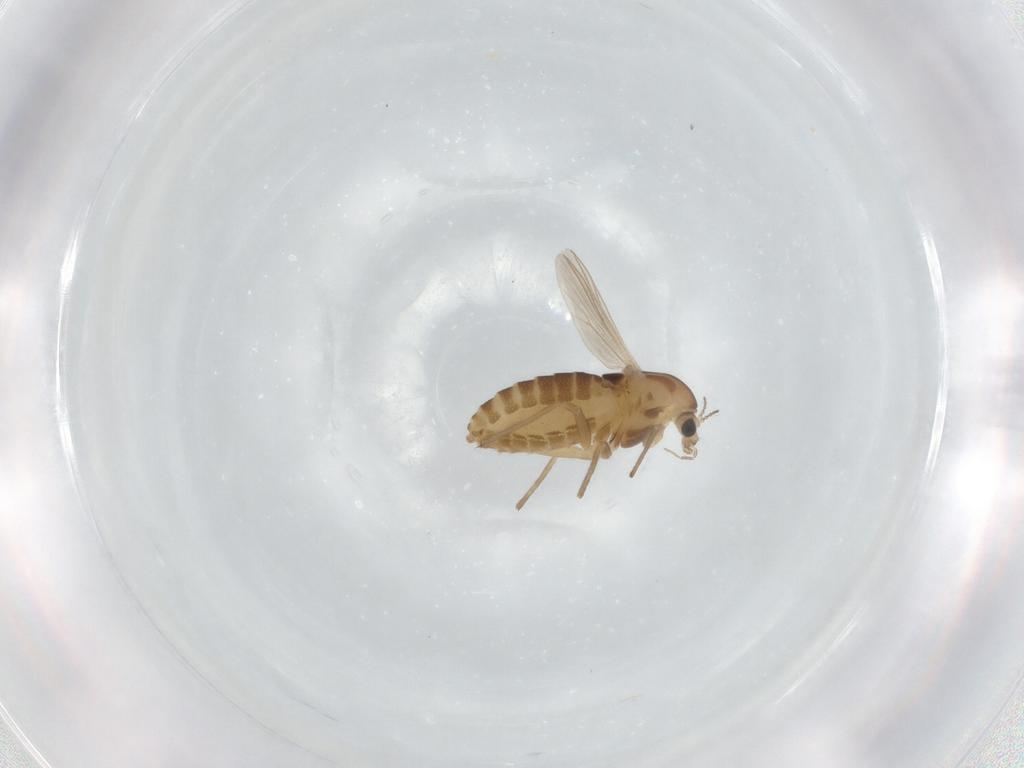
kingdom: Animalia
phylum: Arthropoda
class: Insecta
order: Diptera
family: Chironomidae
